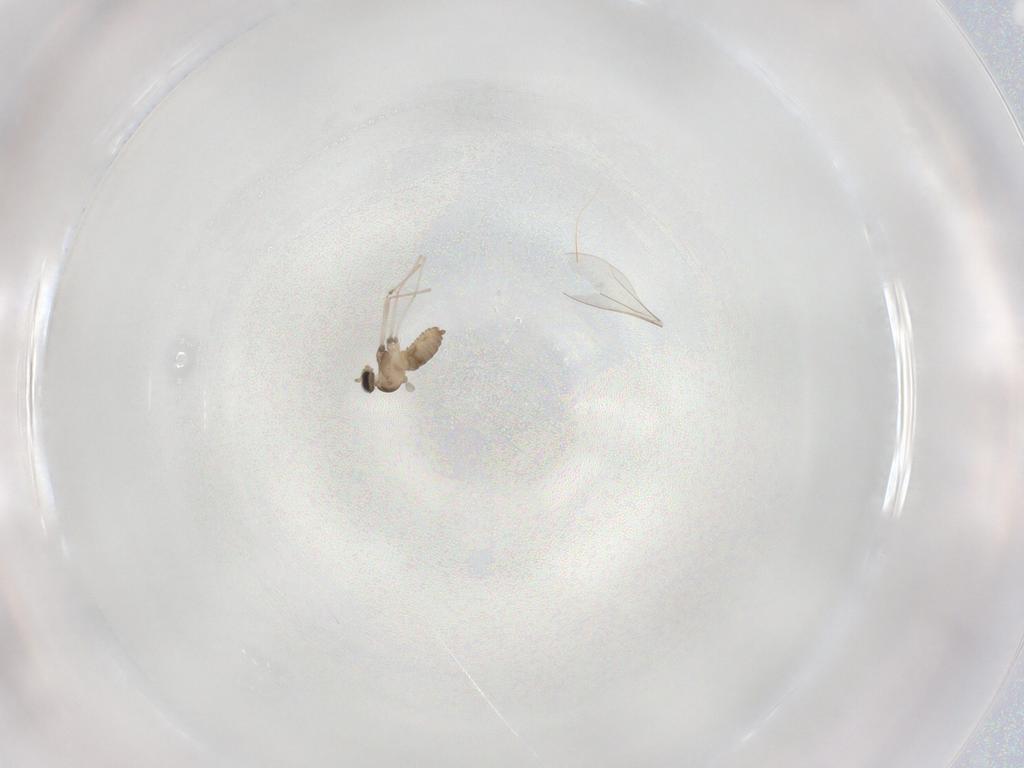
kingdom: Animalia
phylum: Arthropoda
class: Insecta
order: Diptera
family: Cecidomyiidae
